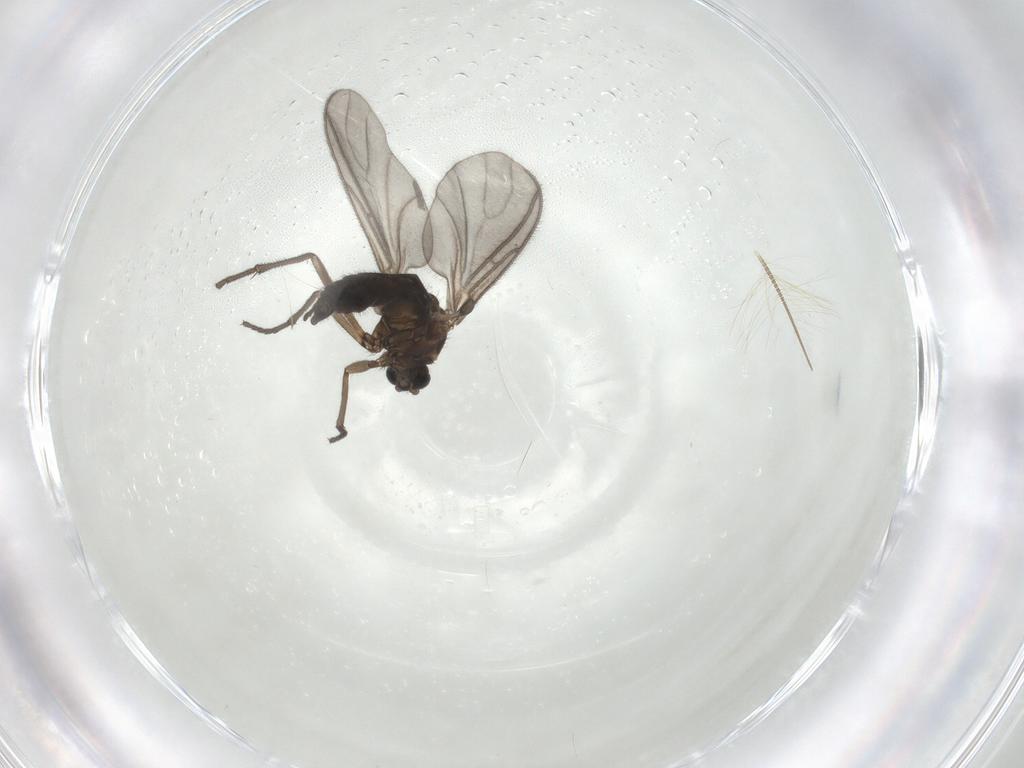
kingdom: Animalia
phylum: Arthropoda
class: Insecta
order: Diptera
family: Sciaridae
